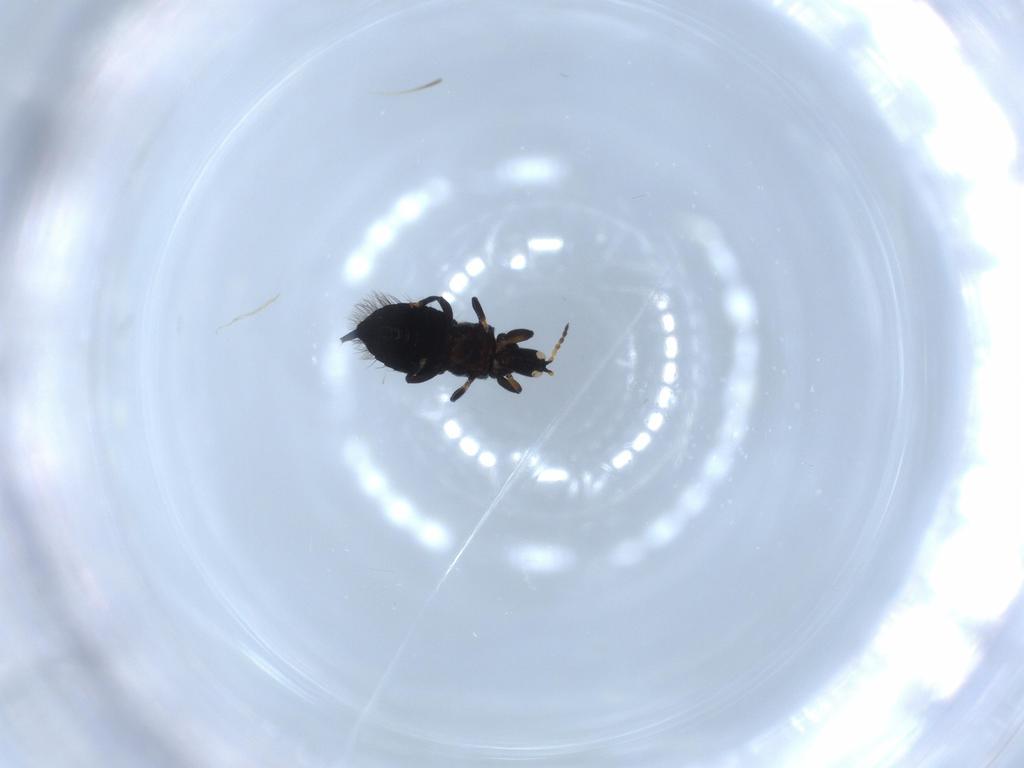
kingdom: Animalia
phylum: Arthropoda
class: Insecta
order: Thysanoptera
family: Phlaeothripidae
